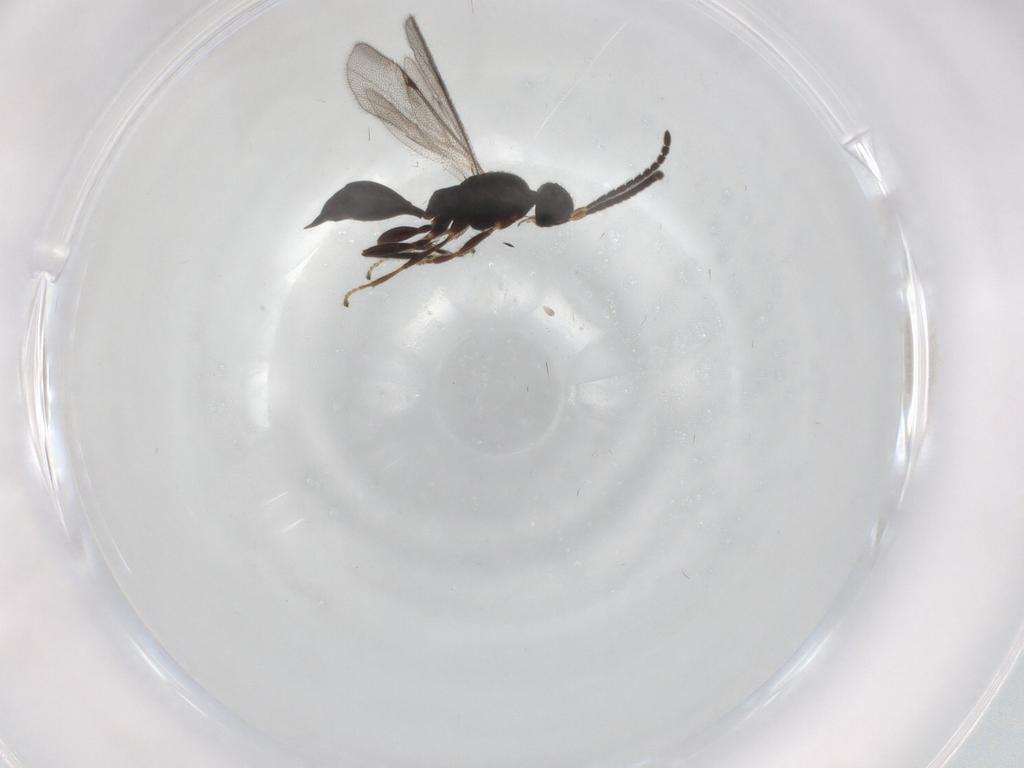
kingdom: Animalia
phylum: Arthropoda
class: Insecta
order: Hymenoptera
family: Proctotrupidae
